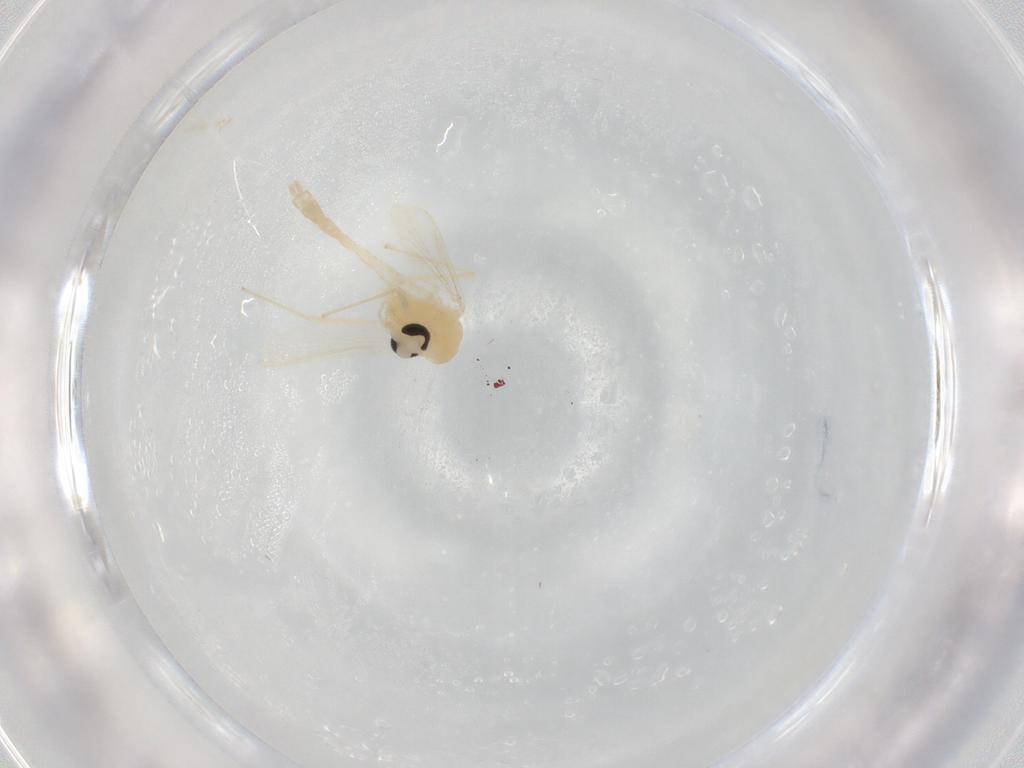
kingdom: Animalia
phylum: Arthropoda
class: Insecta
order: Diptera
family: Chironomidae
